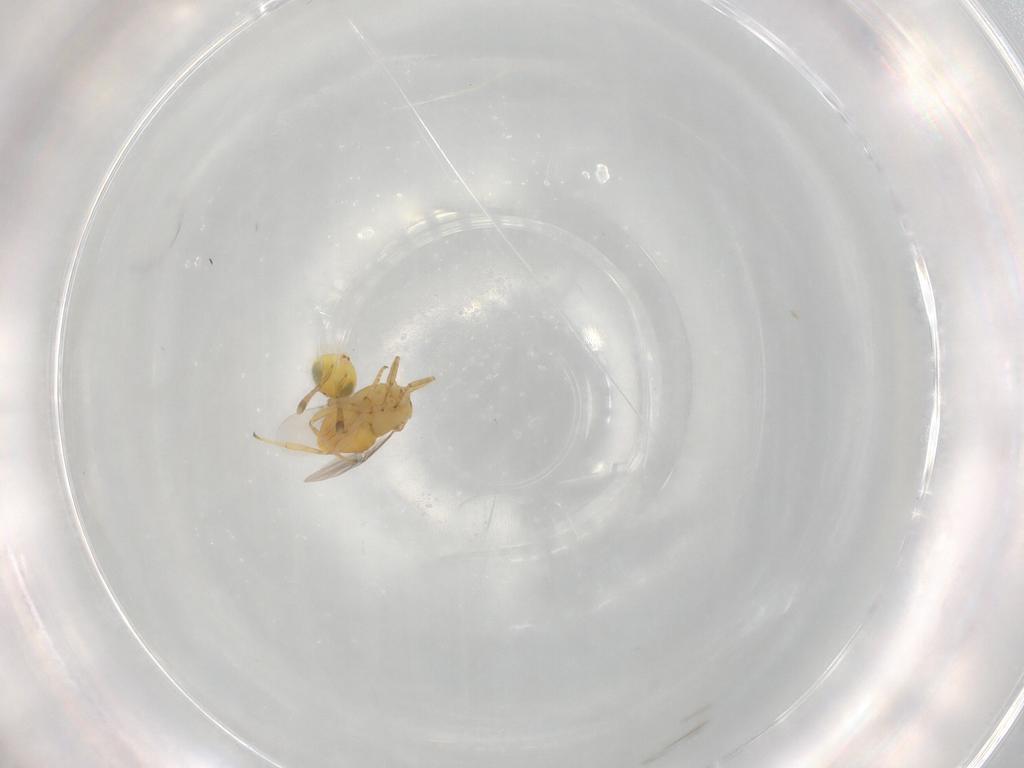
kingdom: Animalia
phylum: Arthropoda
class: Insecta
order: Hymenoptera
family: Encyrtidae
